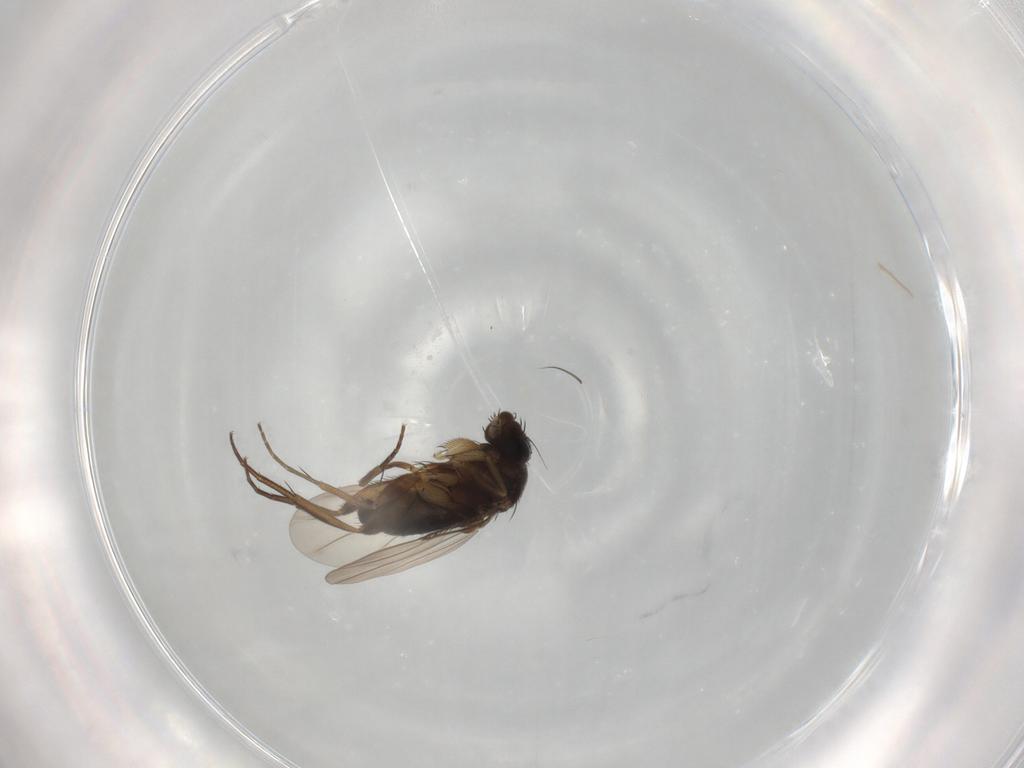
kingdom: Animalia
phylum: Arthropoda
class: Insecta
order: Diptera
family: Phoridae
